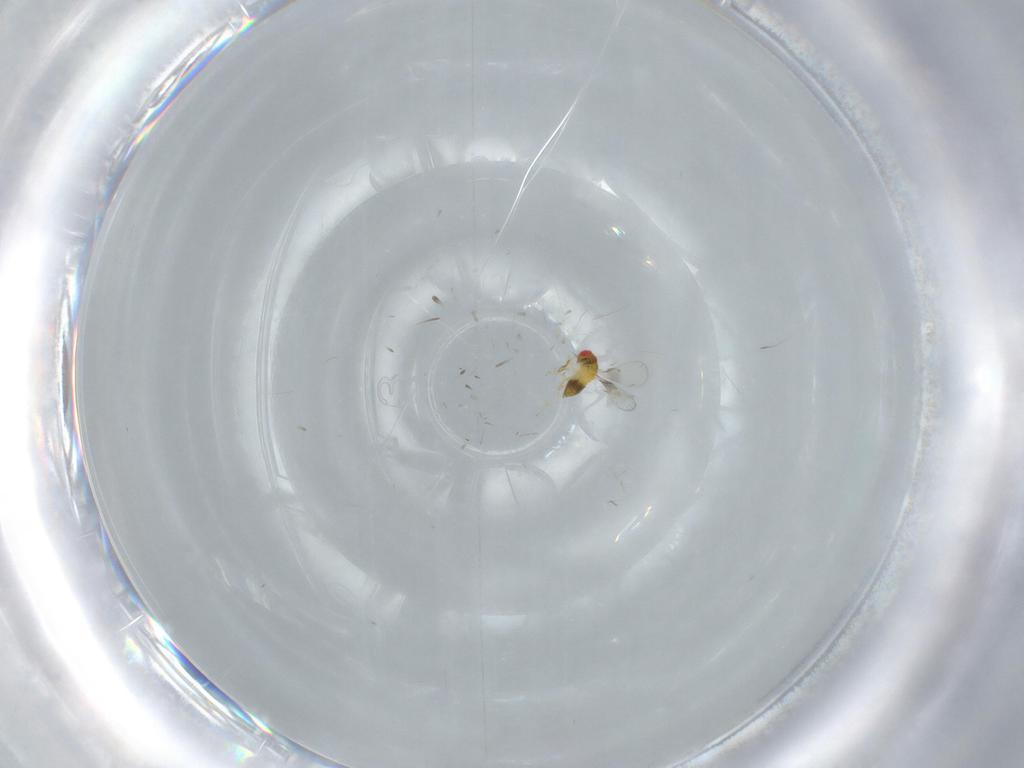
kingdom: Animalia
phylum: Arthropoda
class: Insecta
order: Hymenoptera
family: Trichogrammatidae
